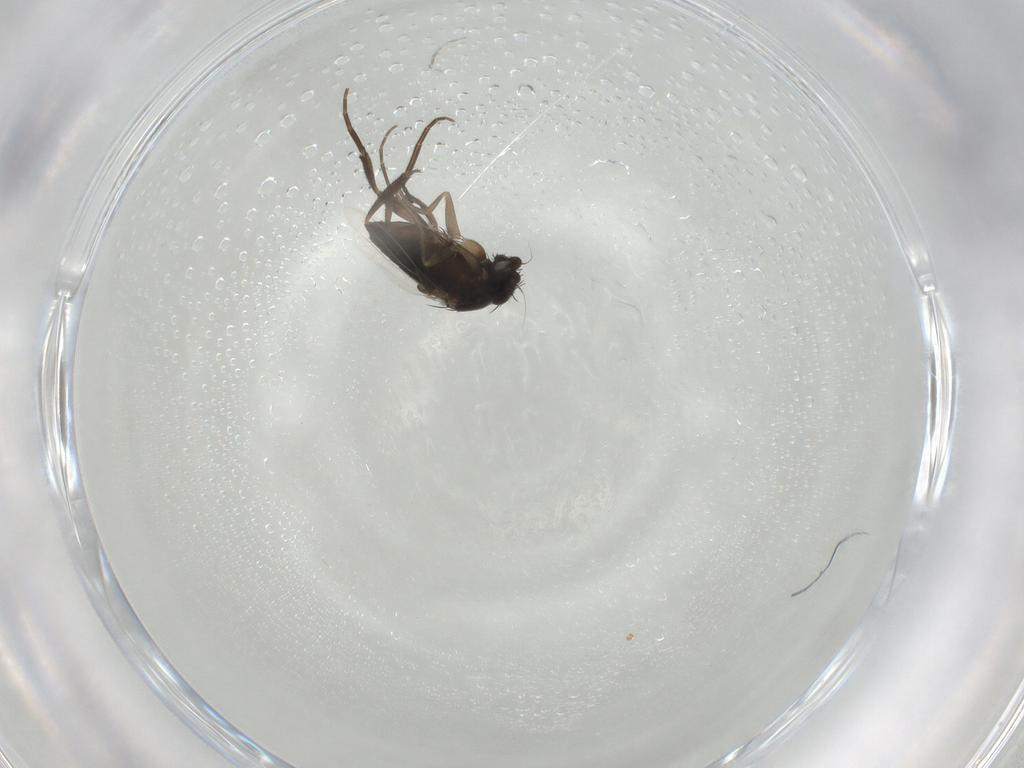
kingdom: Animalia
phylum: Arthropoda
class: Insecta
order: Diptera
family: Phoridae
